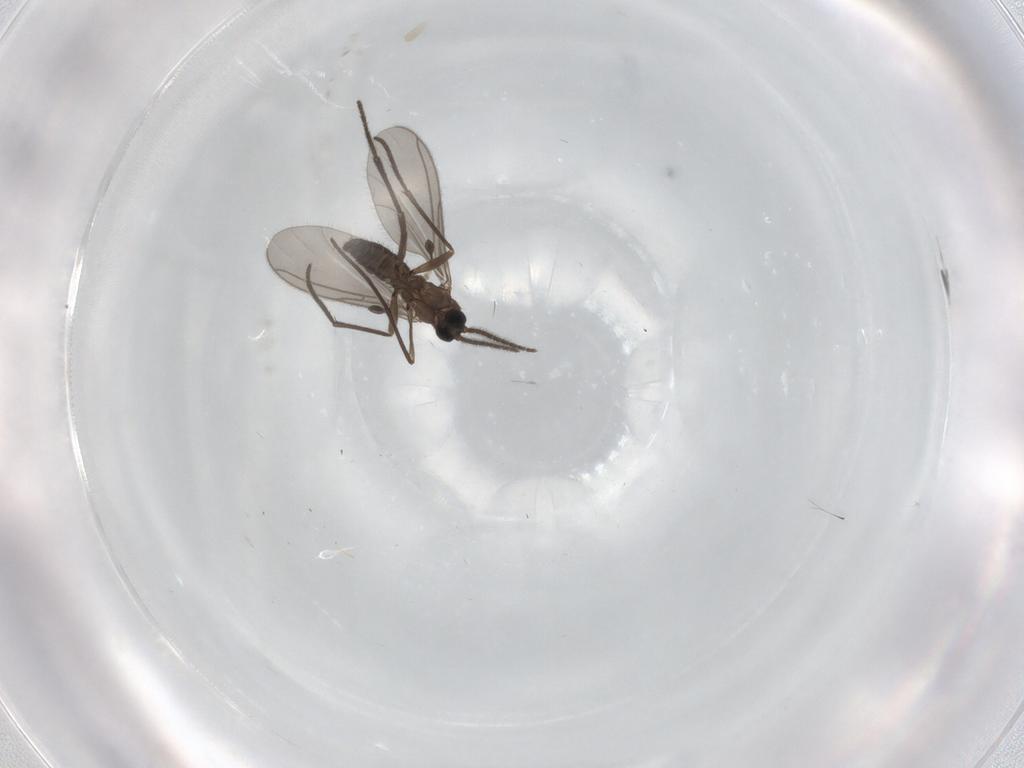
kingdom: Animalia
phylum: Arthropoda
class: Insecta
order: Diptera
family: Sciaridae
